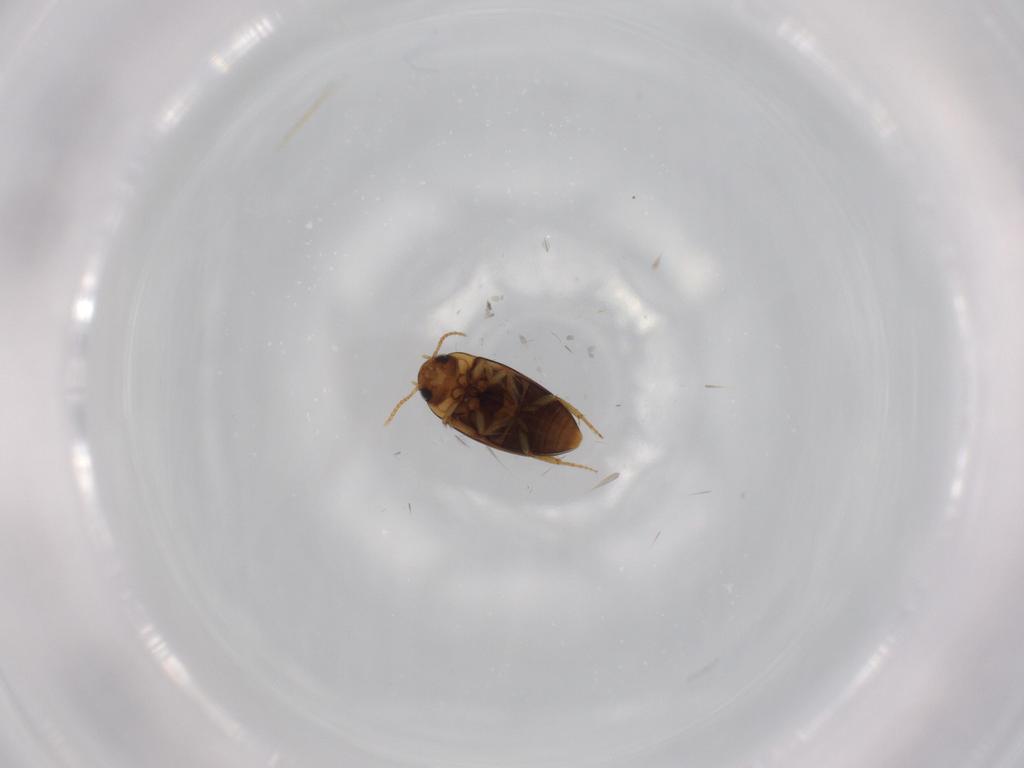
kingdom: Animalia
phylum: Arthropoda
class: Insecta
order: Coleoptera
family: Noteridae
